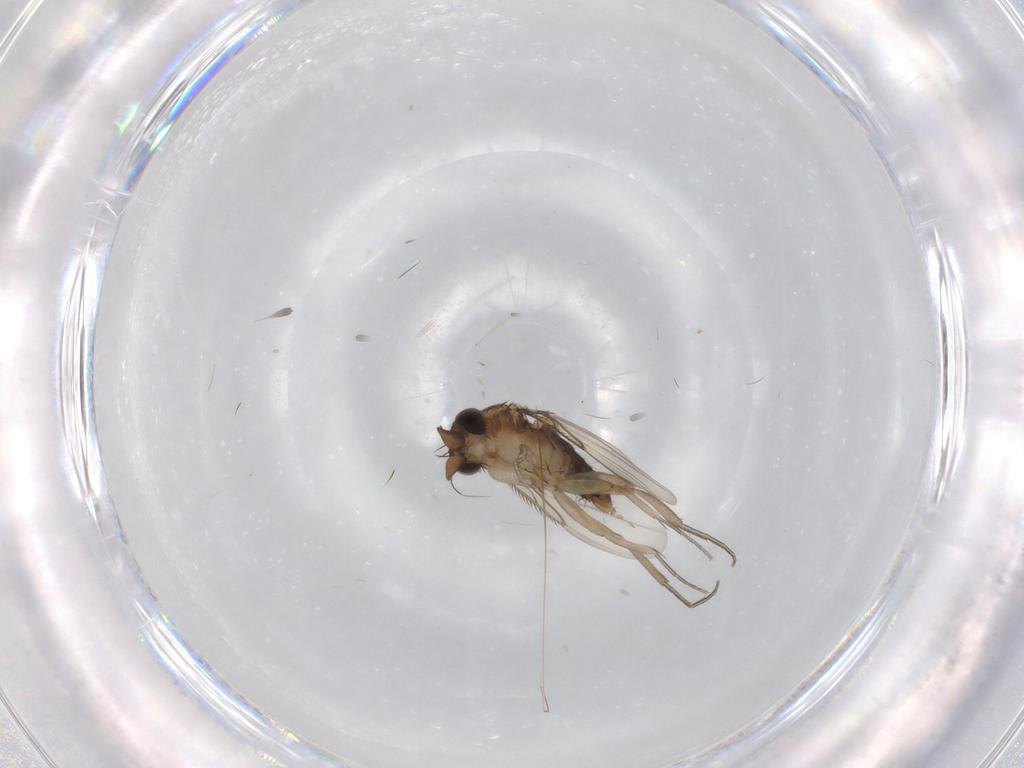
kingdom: Animalia
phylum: Arthropoda
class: Insecta
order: Diptera
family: Phoridae
